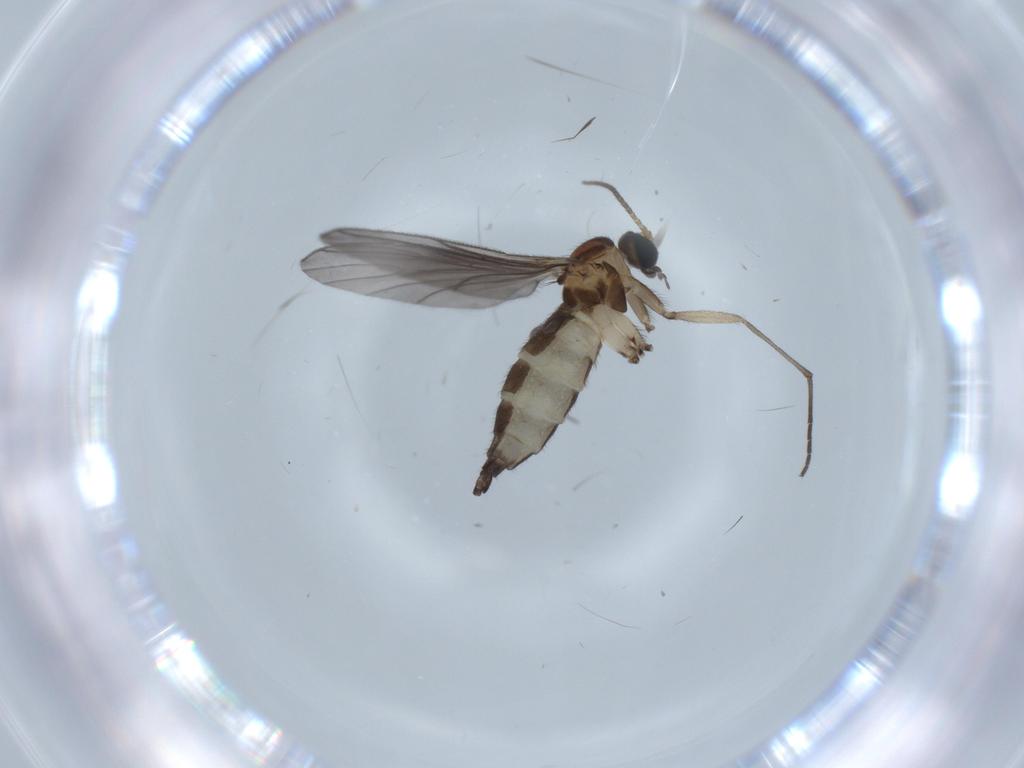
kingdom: Animalia
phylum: Arthropoda
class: Insecta
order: Diptera
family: Sciaridae
